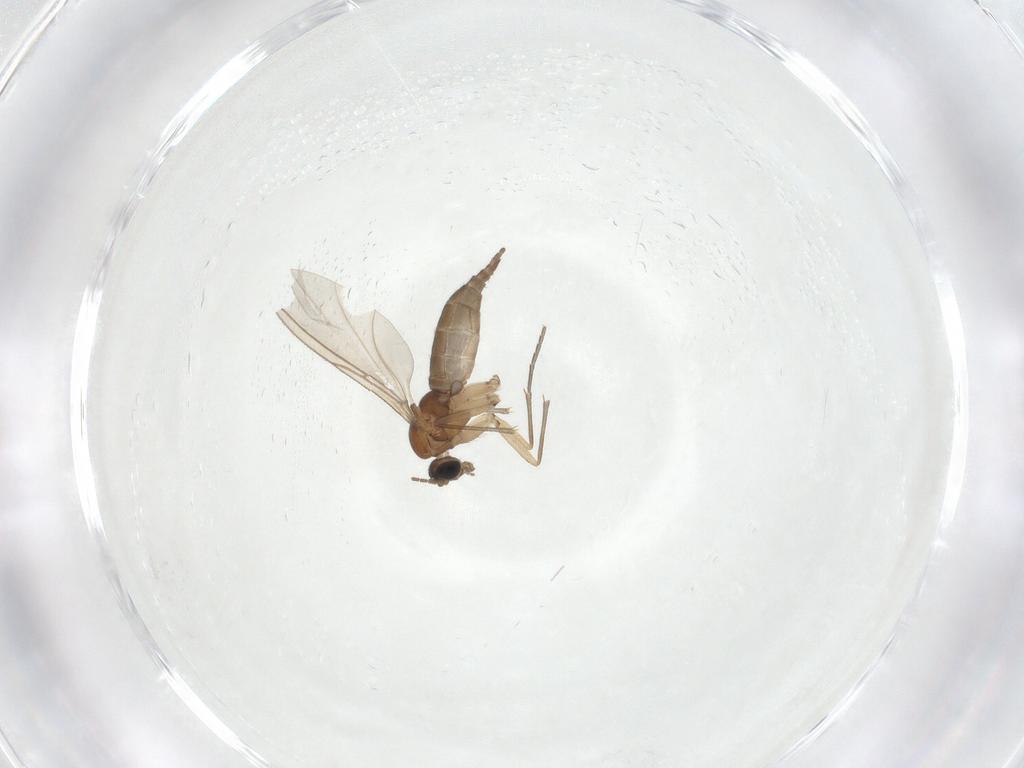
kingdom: Animalia
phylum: Arthropoda
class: Insecta
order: Diptera
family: Sciaridae
